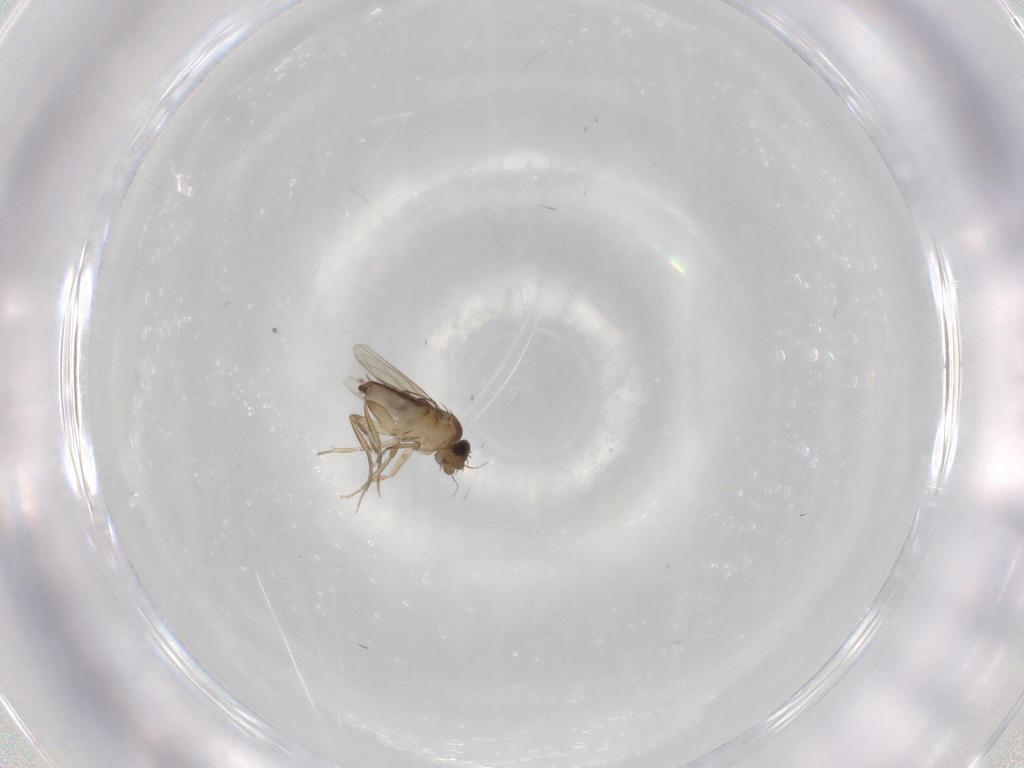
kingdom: Animalia
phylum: Arthropoda
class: Insecta
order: Diptera
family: Phoridae
